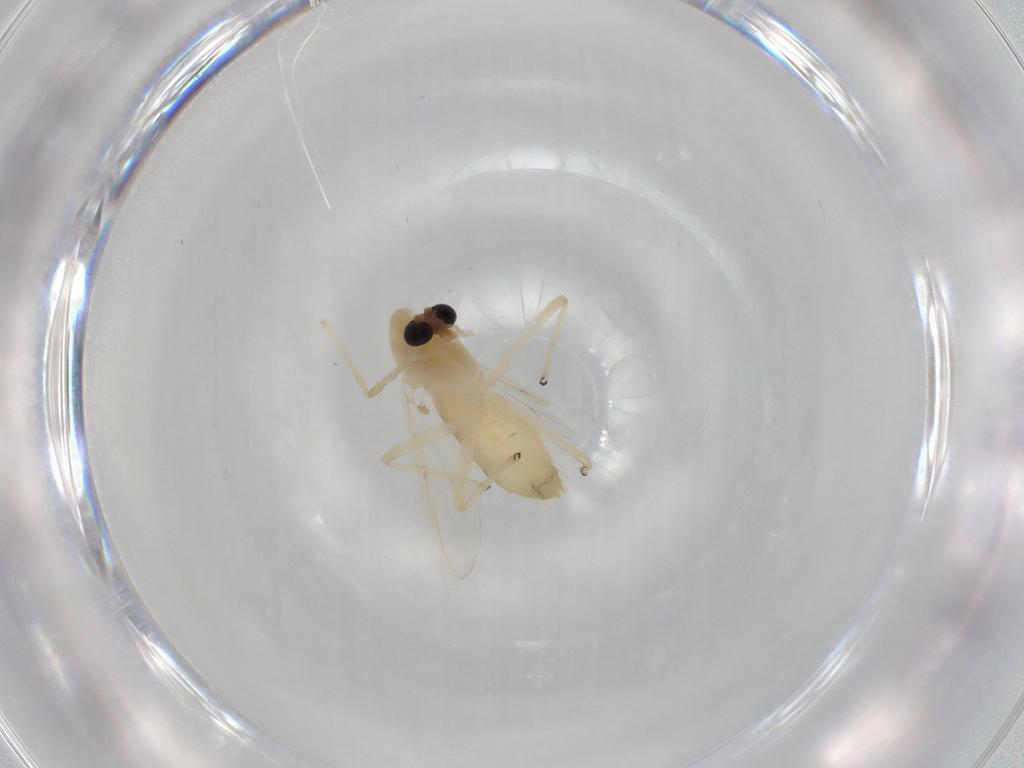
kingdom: Animalia
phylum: Arthropoda
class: Insecta
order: Diptera
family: Chironomidae
